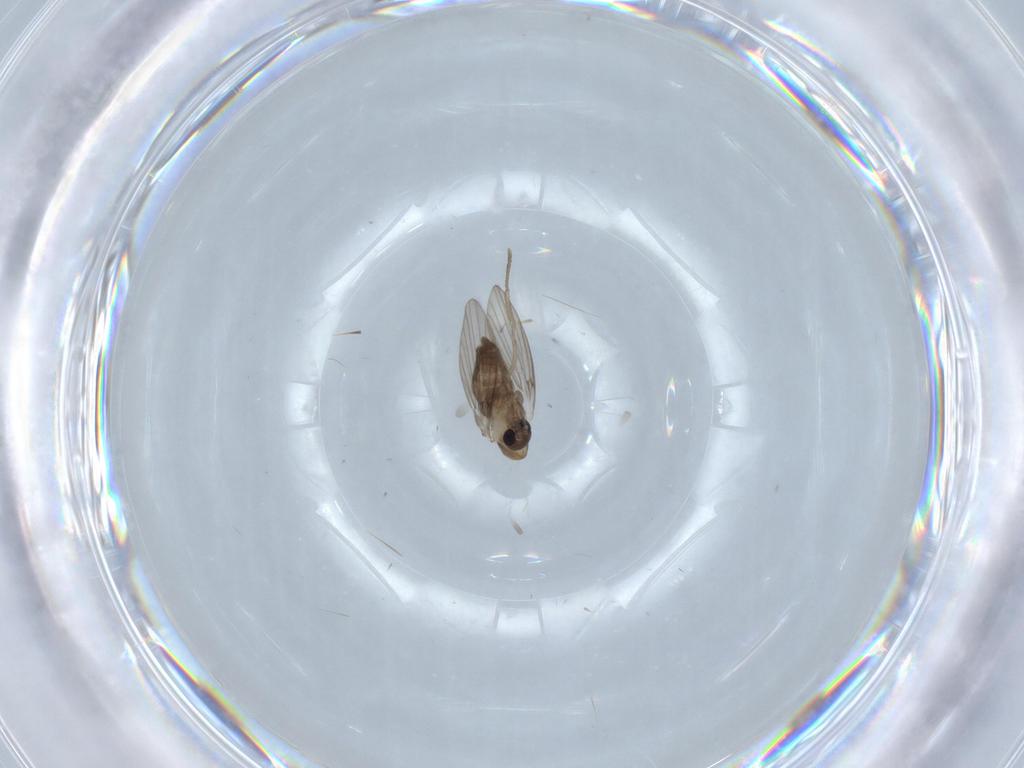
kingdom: Animalia
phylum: Arthropoda
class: Insecta
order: Diptera
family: Psychodidae
